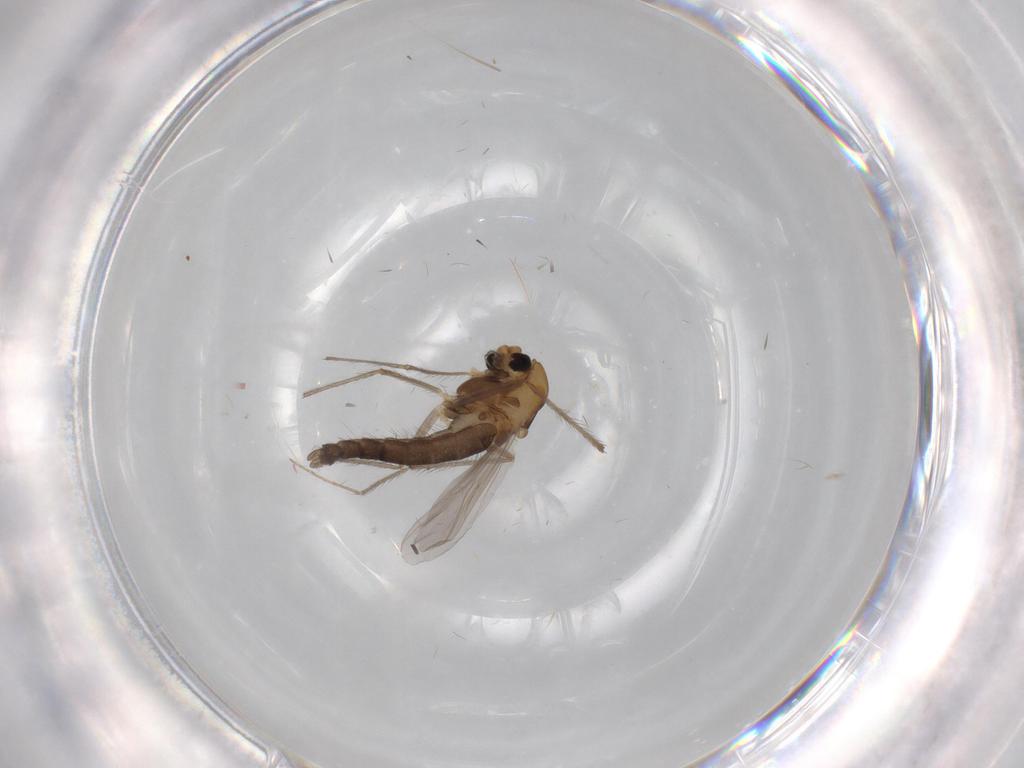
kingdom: Animalia
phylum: Arthropoda
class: Insecta
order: Diptera
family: Chironomidae
